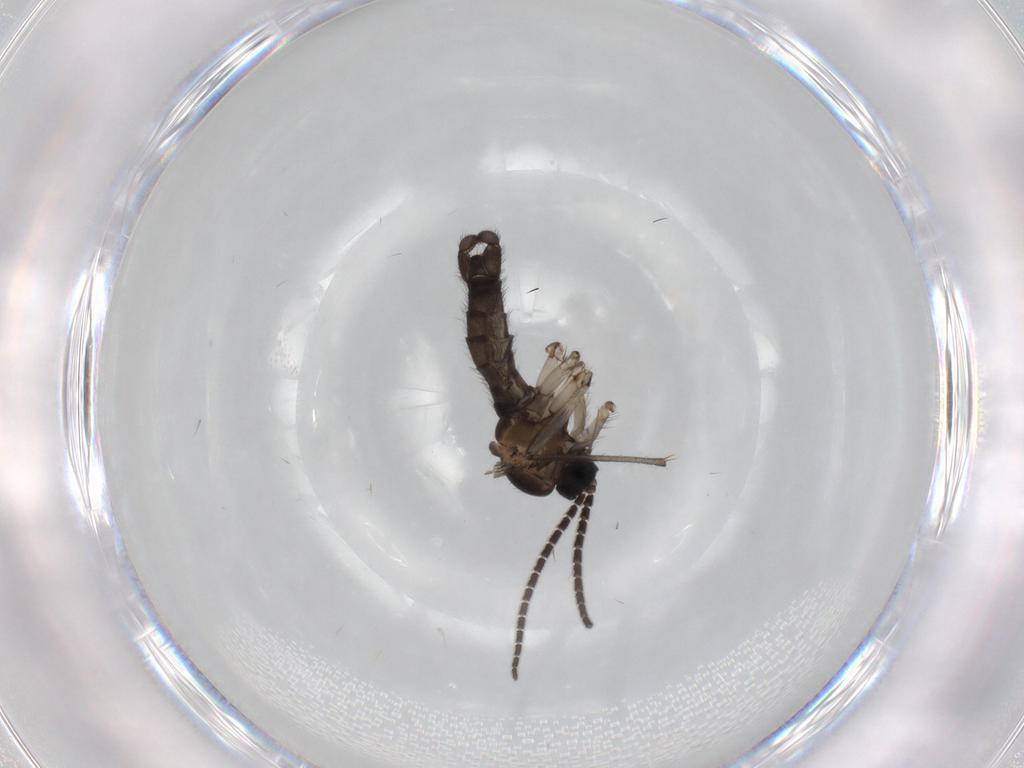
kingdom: Animalia
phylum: Arthropoda
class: Insecta
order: Diptera
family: Sciaridae
